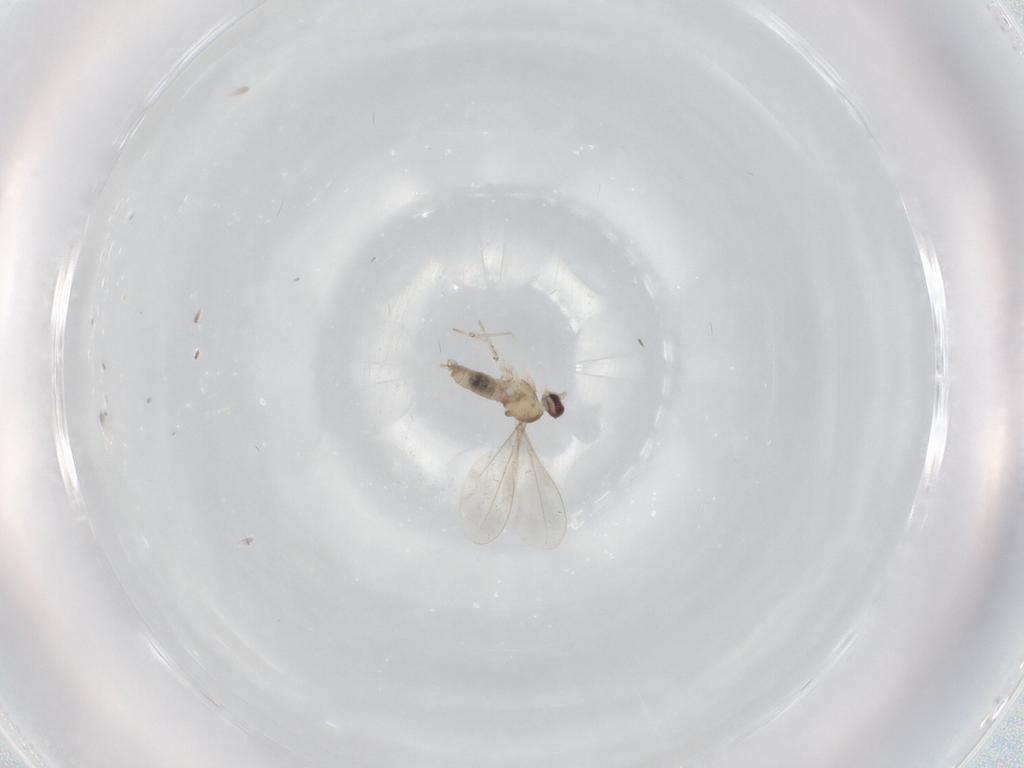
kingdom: Animalia
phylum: Arthropoda
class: Insecta
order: Diptera
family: Cecidomyiidae
